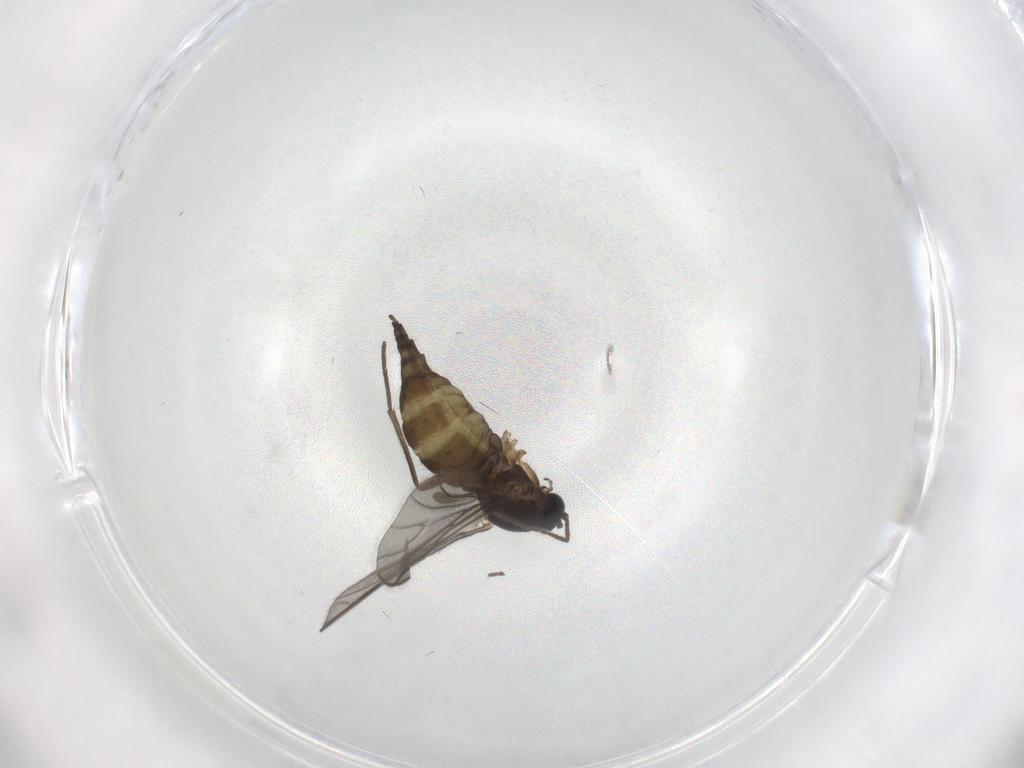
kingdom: Animalia
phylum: Arthropoda
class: Insecta
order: Diptera
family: Sciaridae
